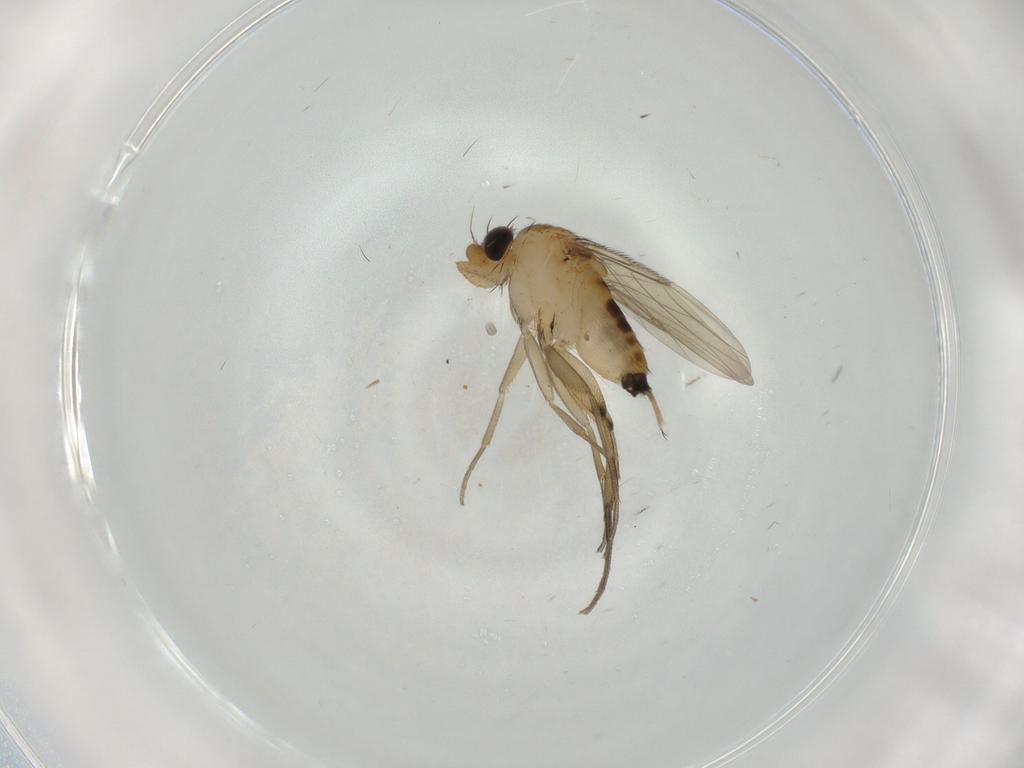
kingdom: Animalia
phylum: Arthropoda
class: Insecta
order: Diptera
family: Phoridae
